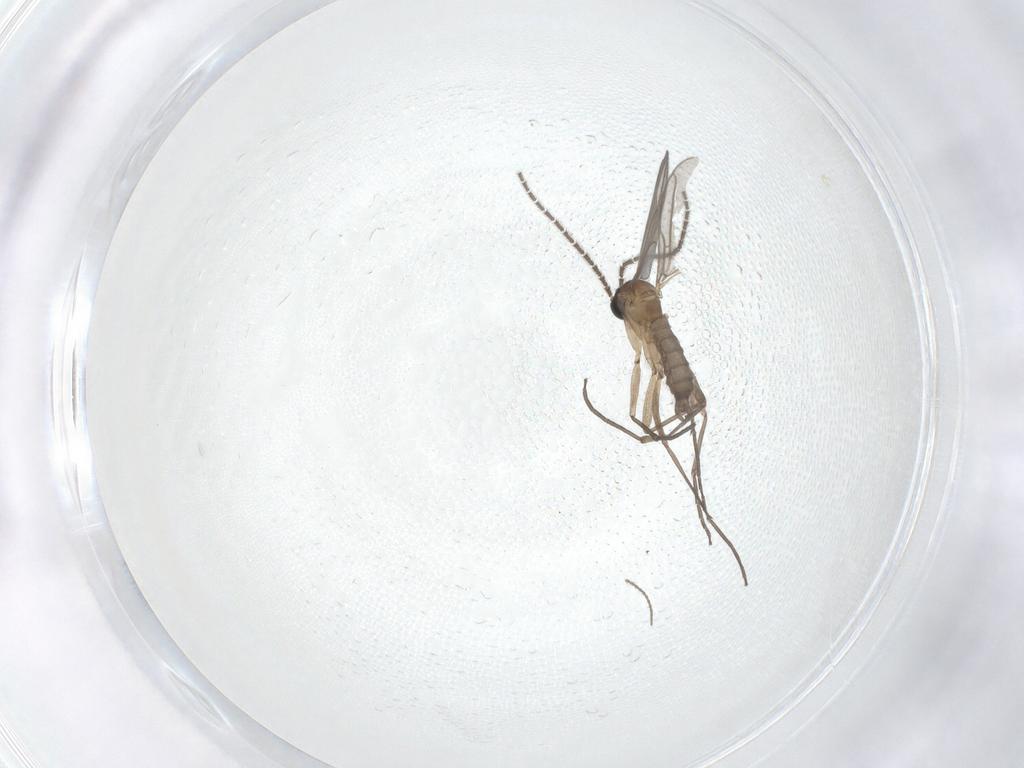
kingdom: Animalia
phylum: Arthropoda
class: Insecta
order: Diptera
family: Sciaridae
